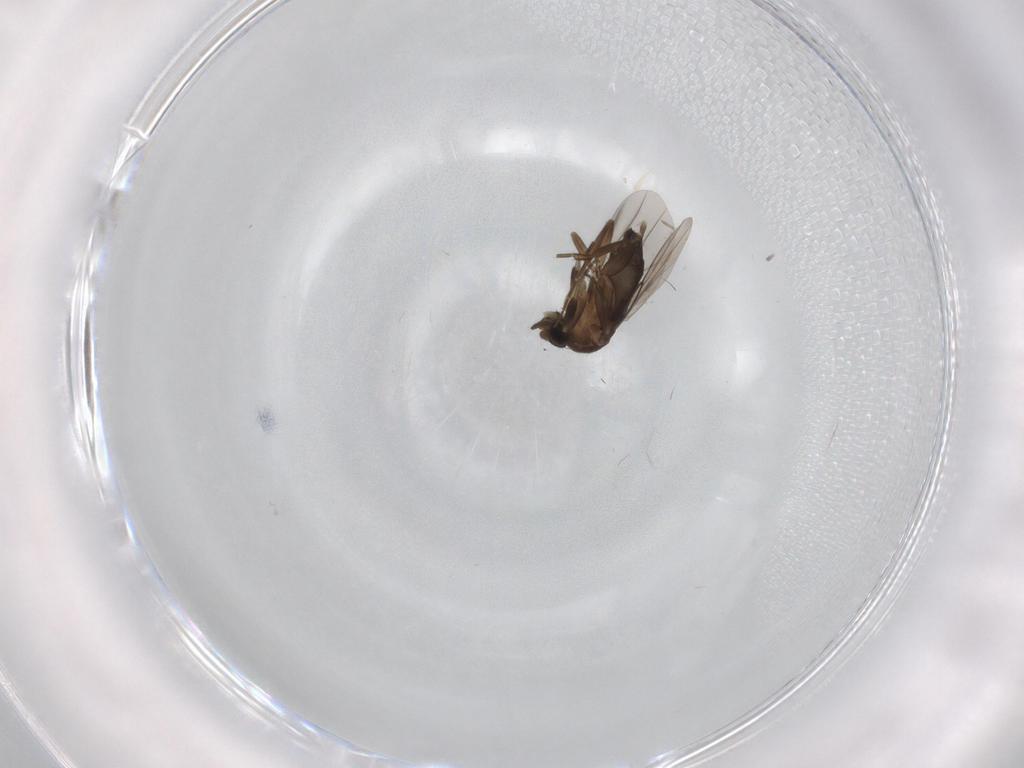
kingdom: Animalia
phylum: Arthropoda
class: Insecta
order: Diptera
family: Phoridae
